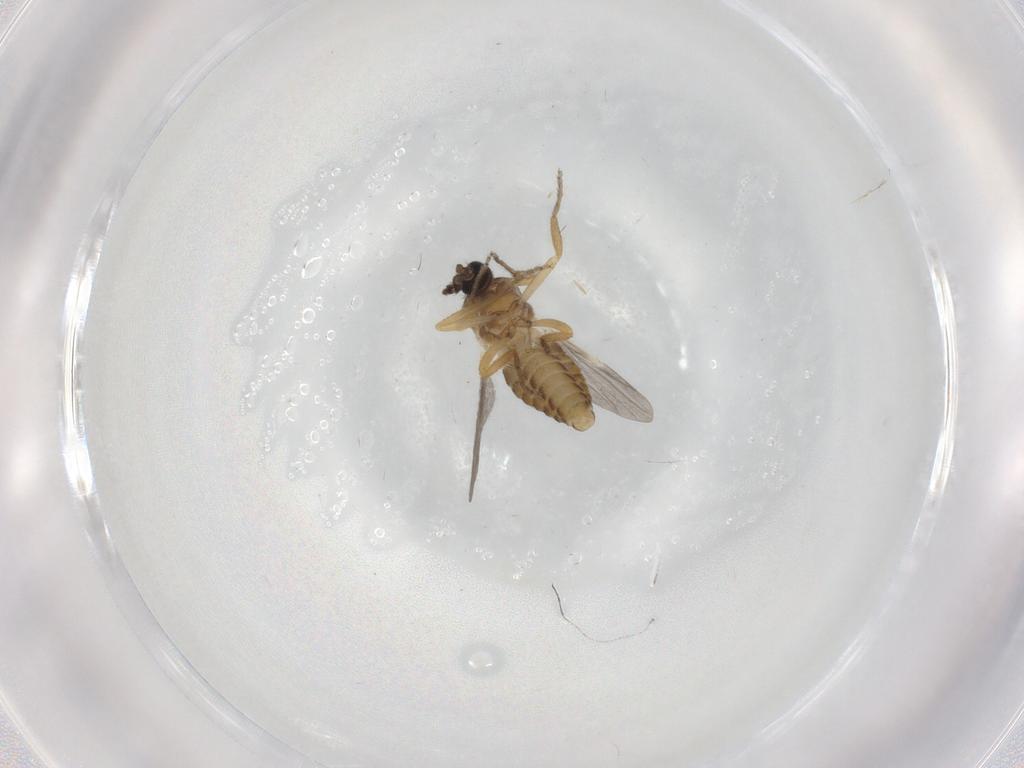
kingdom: Animalia
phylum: Arthropoda
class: Insecta
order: Diptera
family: Ceratopogonidae
